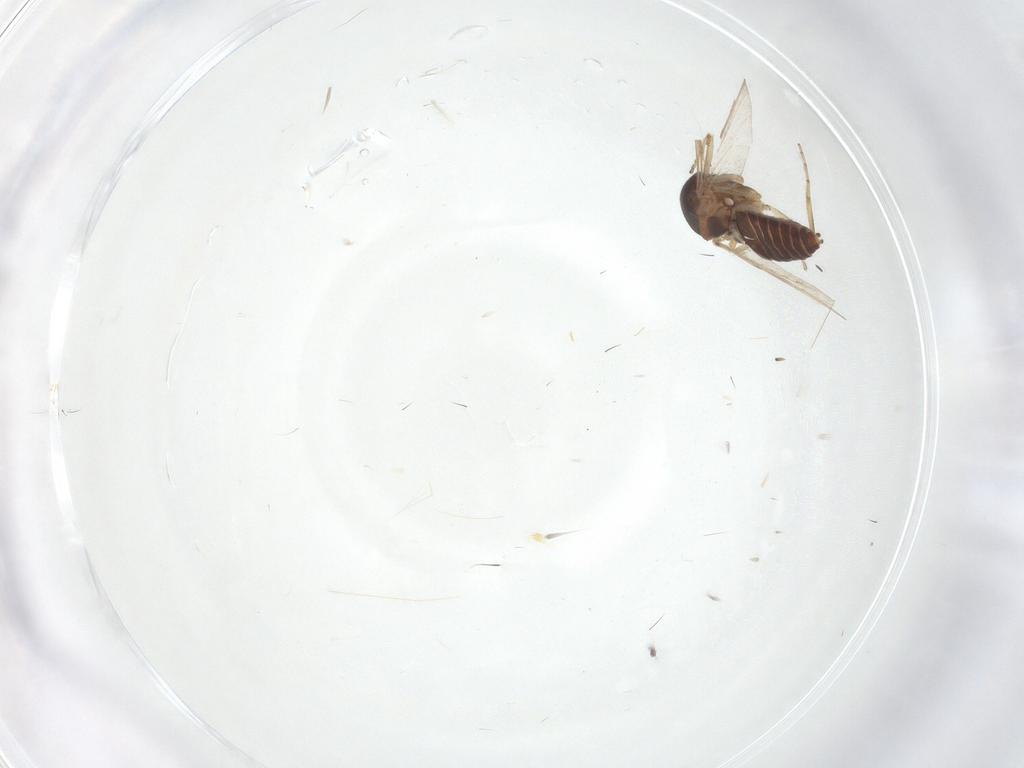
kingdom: Animalia
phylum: Arthropoda
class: Insecta
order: Diptera
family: Ceratopogonidae
